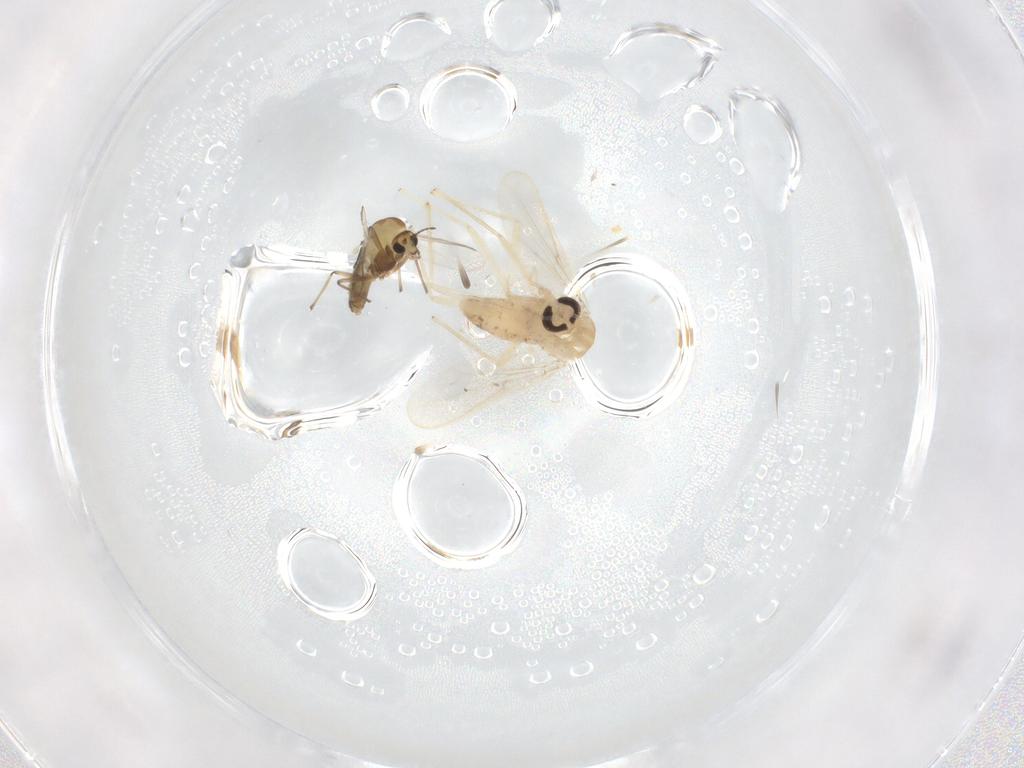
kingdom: Animalia
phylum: Arthropoda
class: Insecta
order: Diptera
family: Chironomidae
